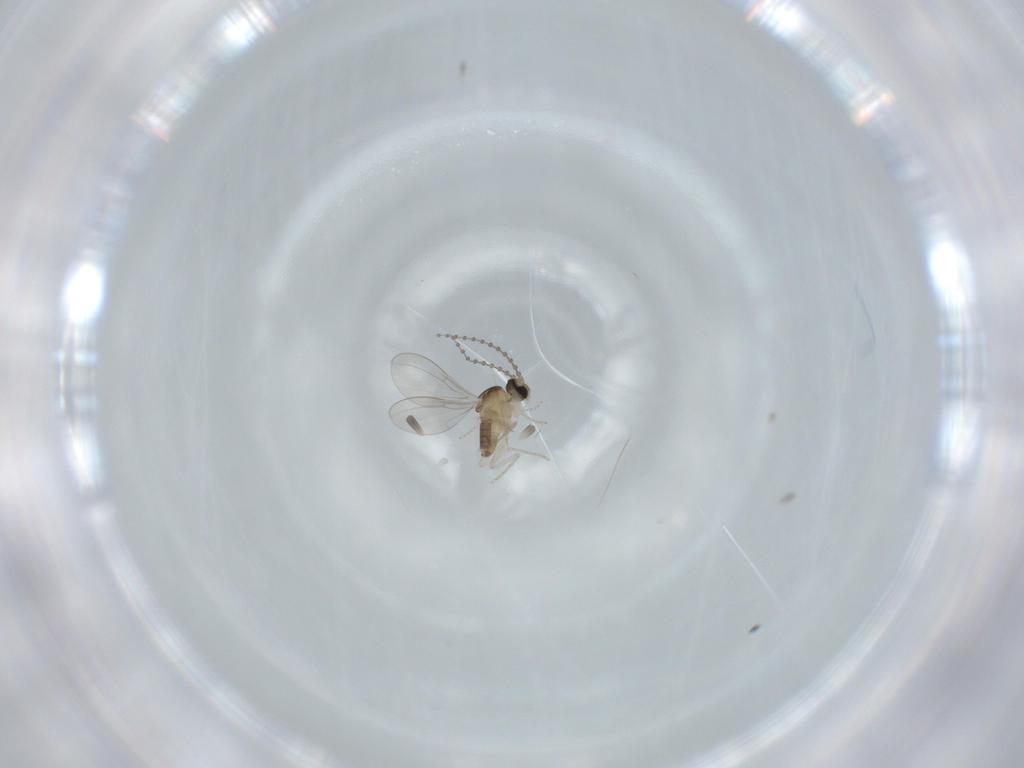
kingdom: Animalia
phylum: Arthropoda
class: Insecta
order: Diptera
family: Cecidomyiidae
